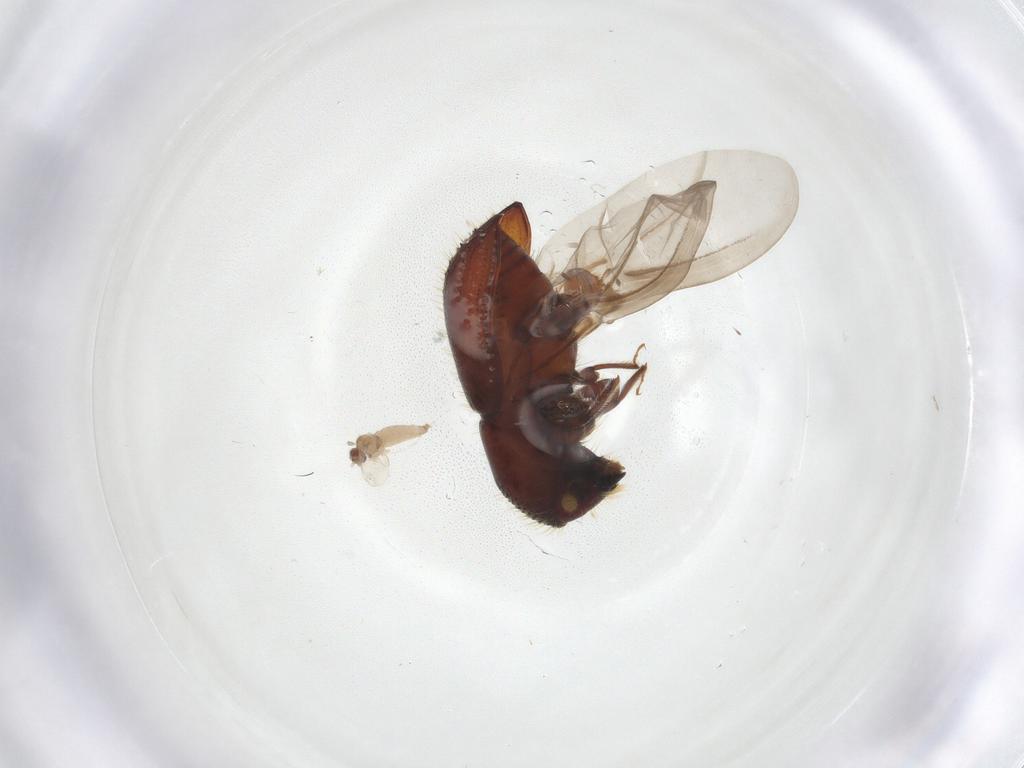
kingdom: Animalia
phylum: Arthropoda
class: Insecta
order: Diptera
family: Cecidomyiidae
